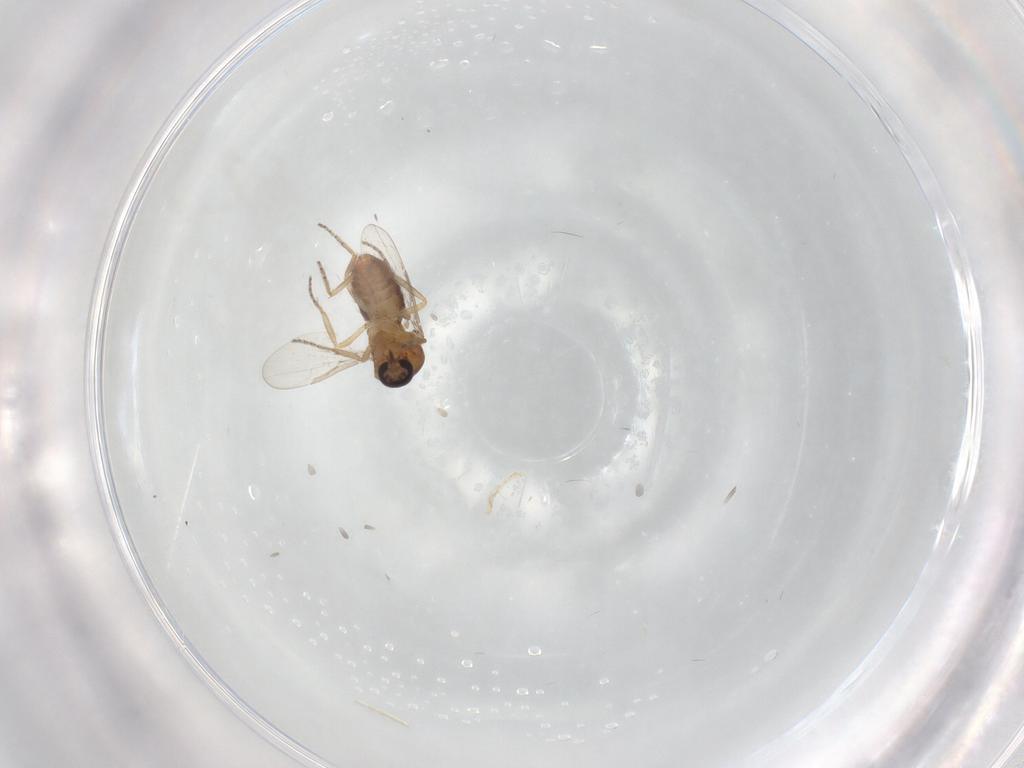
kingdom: Animalia
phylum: Arthropoda
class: Insecta
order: Diptera
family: Ceratopogonidae
